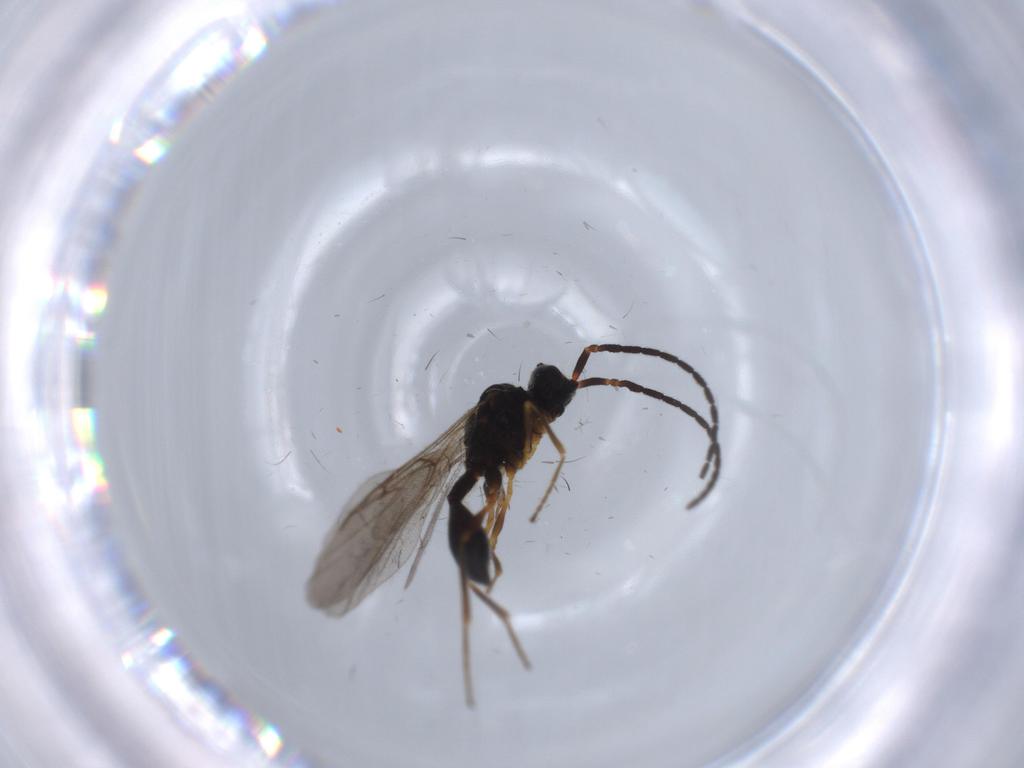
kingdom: Animalia
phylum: Arthropoda
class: Insecta
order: Hymenoptera
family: Diapriidae
